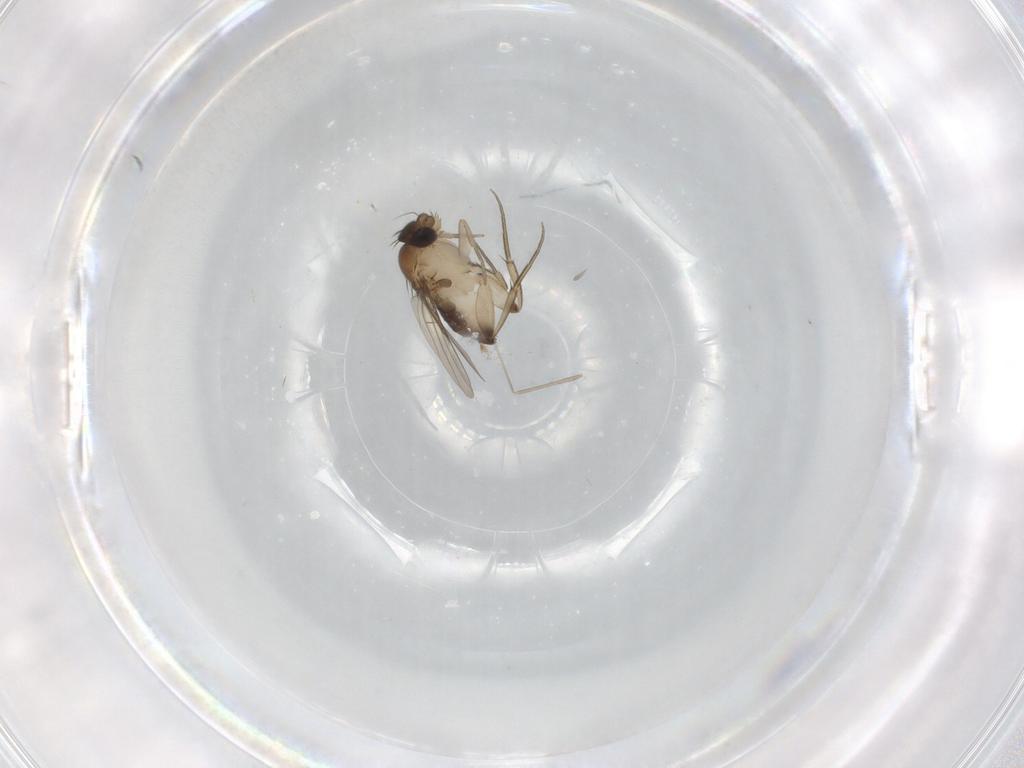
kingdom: Animalia
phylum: Arthropoda
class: Insecta
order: Diptera
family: Phoridae
